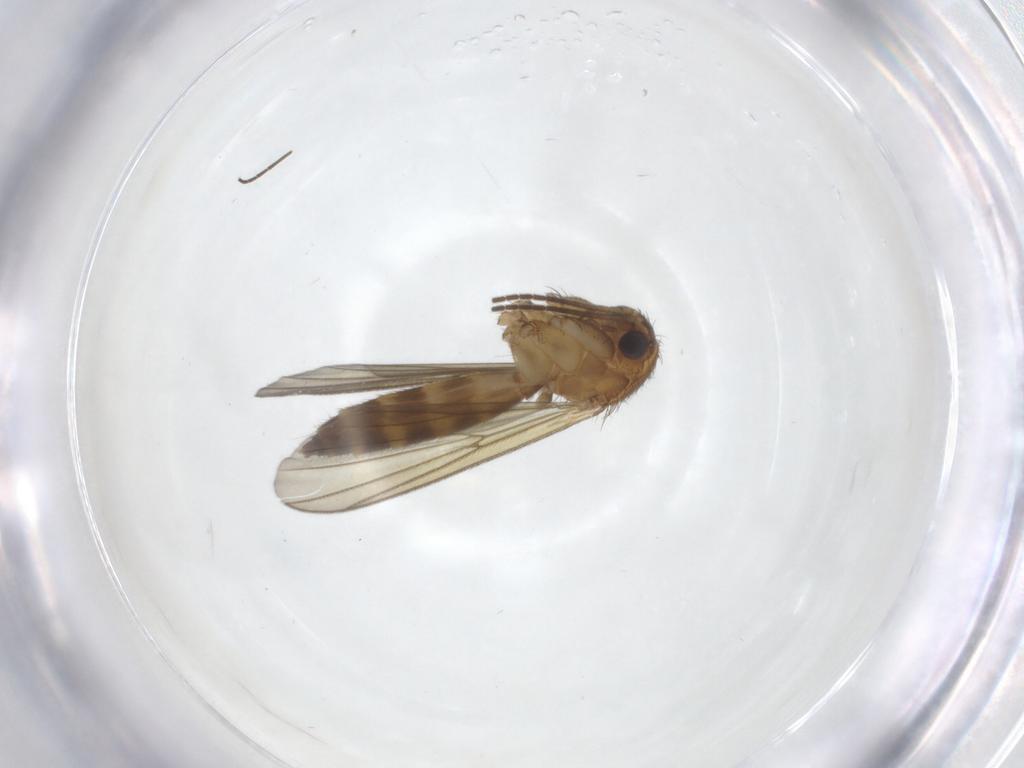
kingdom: Animalia
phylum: Arthropoda
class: Insecta
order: Diptera
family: Mycetophilidae
